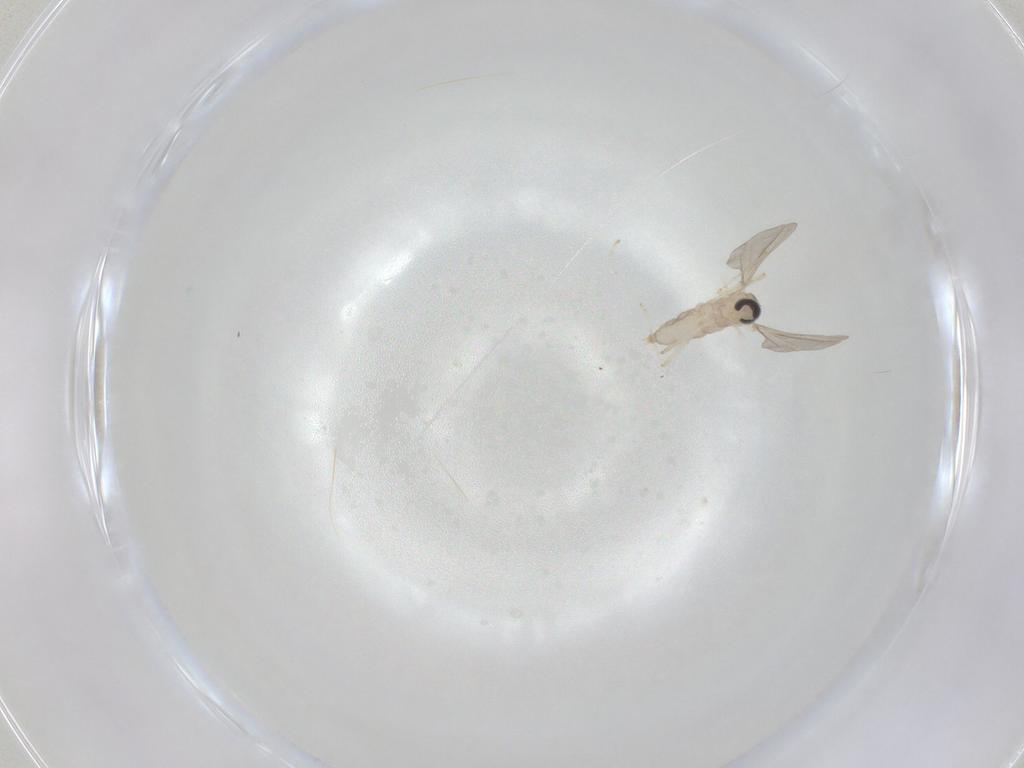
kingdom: Animalia
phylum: Arthropoda
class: Insecta
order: Diptera
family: Cecidomyiidae
